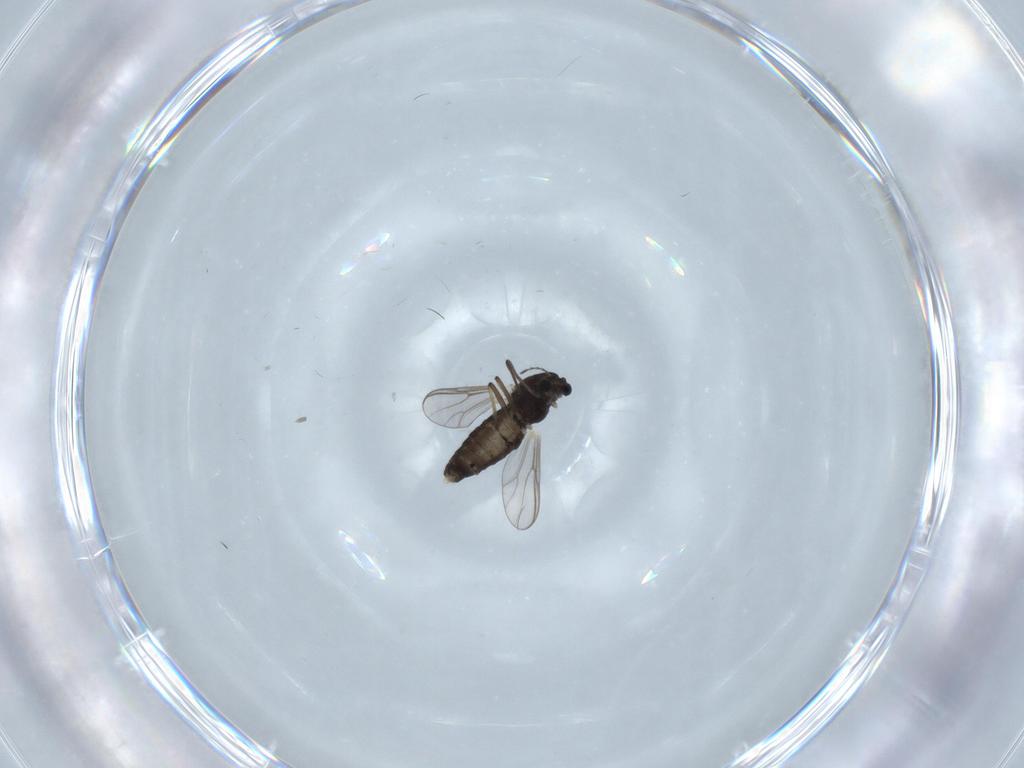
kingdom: Animalia
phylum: Arthropoda
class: Insecta
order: Diptera
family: Chironomidae
